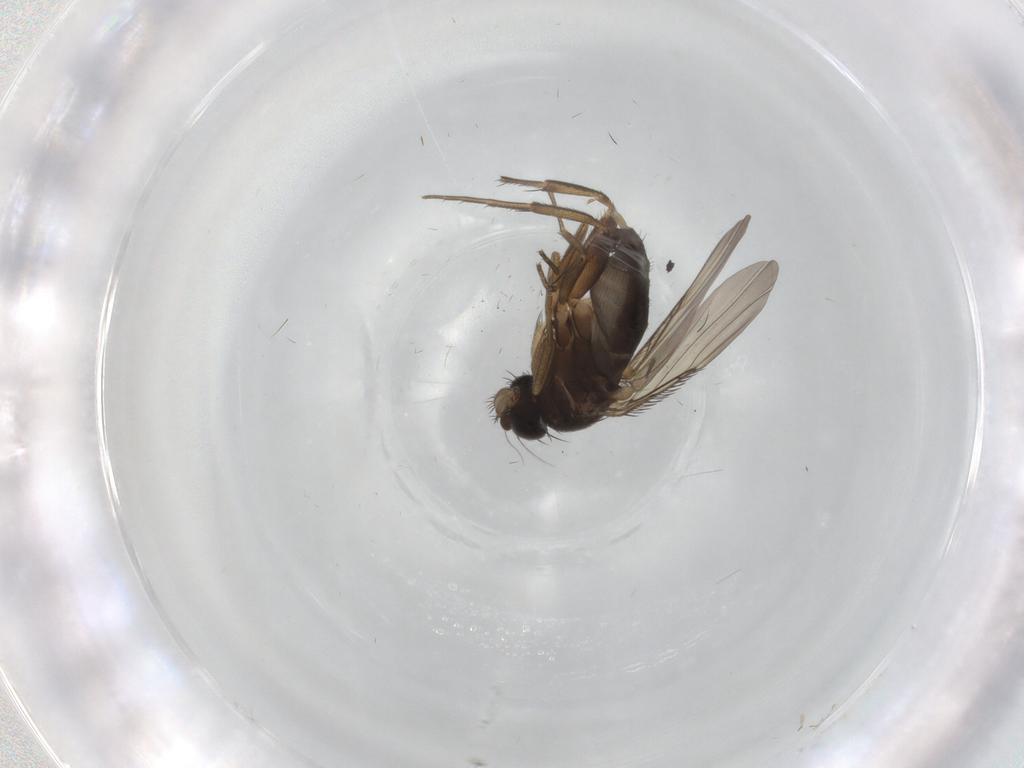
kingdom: Animalia
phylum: Arthropoda
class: Insecta
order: Diptera
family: Phoridae
